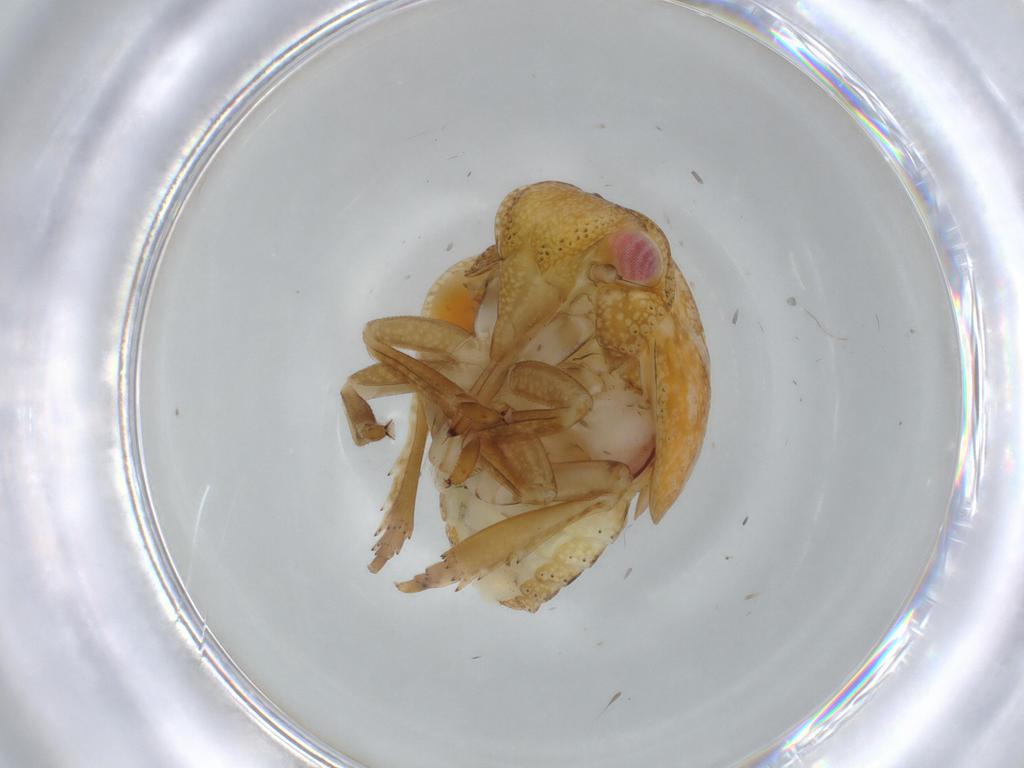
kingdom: Animalia
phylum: Arthropoda
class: Insecta
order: Hemiptera
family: Acanaloniidae
